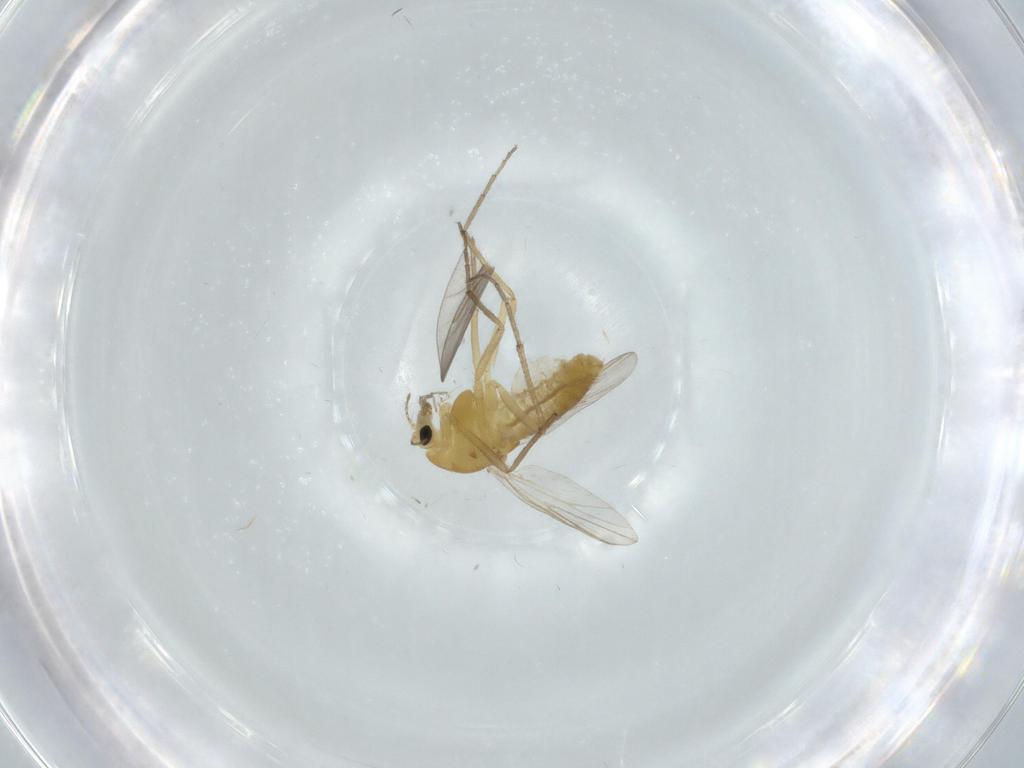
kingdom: Animalia
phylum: Arthropoda
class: Insecta
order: Diptera
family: Chironomidae
